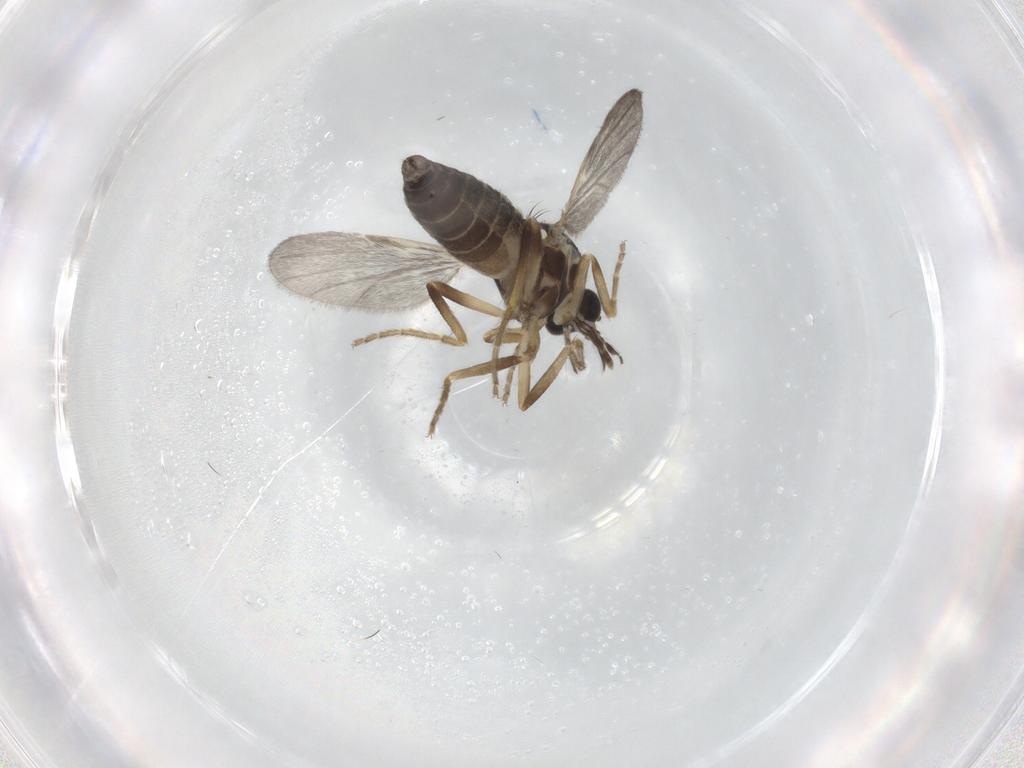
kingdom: Animalia
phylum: Arthropoda
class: Insecta
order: Diptera
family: Ceratopogonidae
